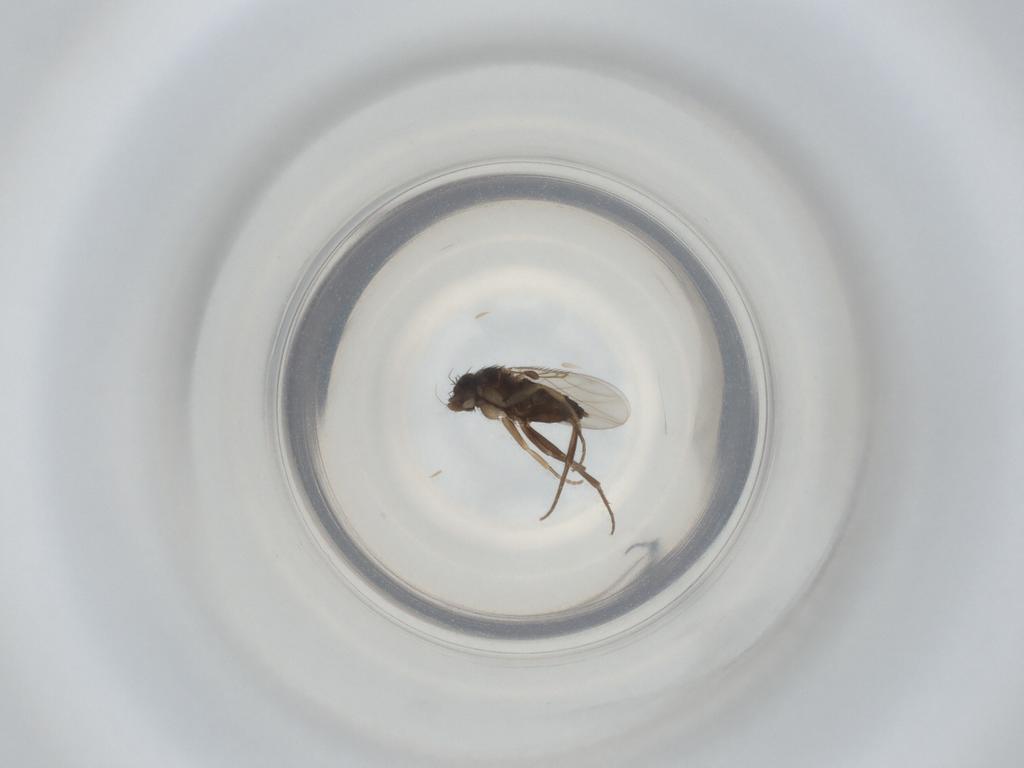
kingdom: Animalia
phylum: Arthropoda
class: Insecta
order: Diptera
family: Phoridae
